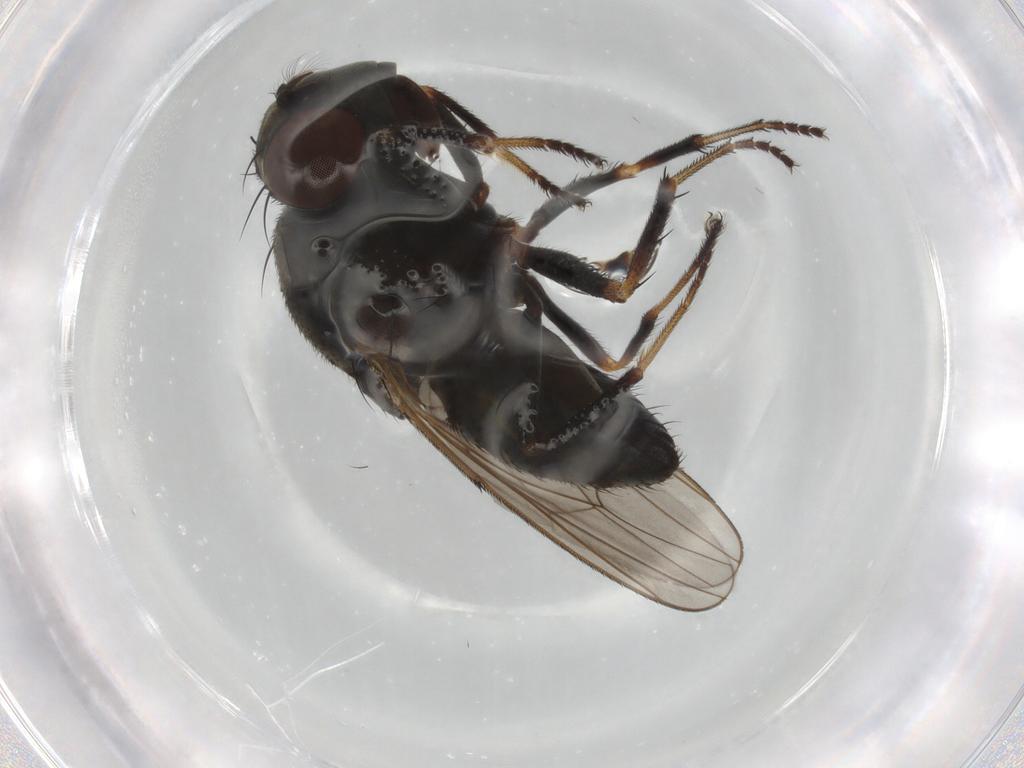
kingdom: Animalia
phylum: Arthropoda
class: Insecta
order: Diptera
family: Ephydridae
